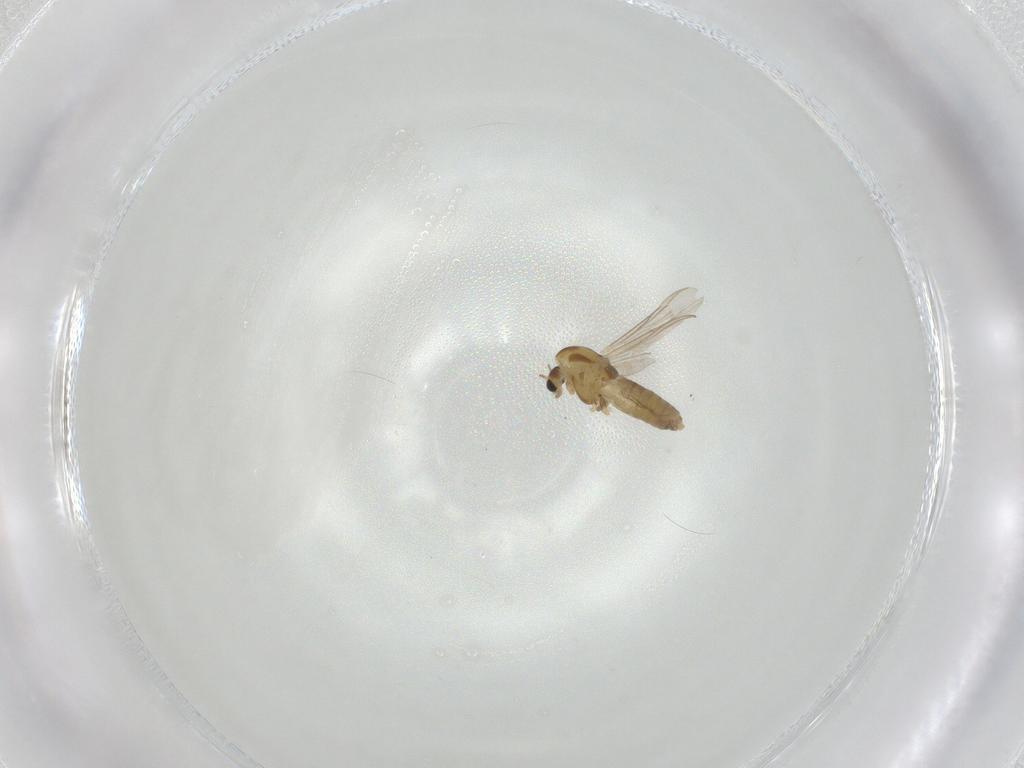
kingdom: Animalia
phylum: Arthropoda
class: Insecta
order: Diptera
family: Chironomidae
